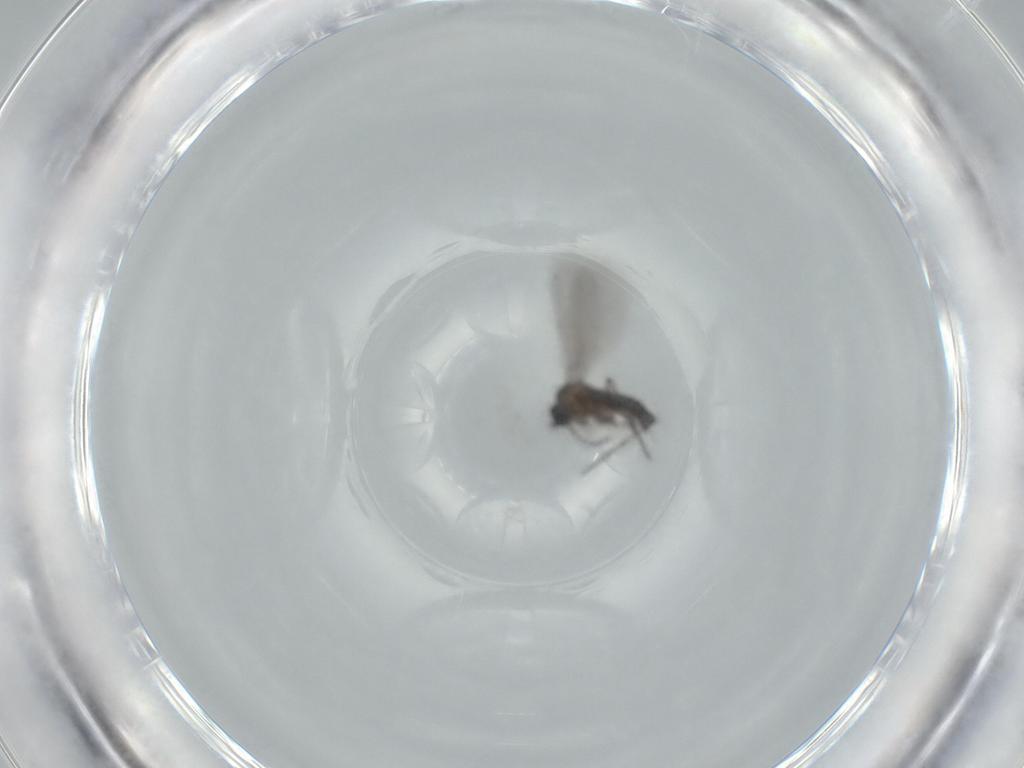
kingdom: Animalia
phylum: Arthropoda
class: Insecta
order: Diptera
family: Cecidomyiidae
